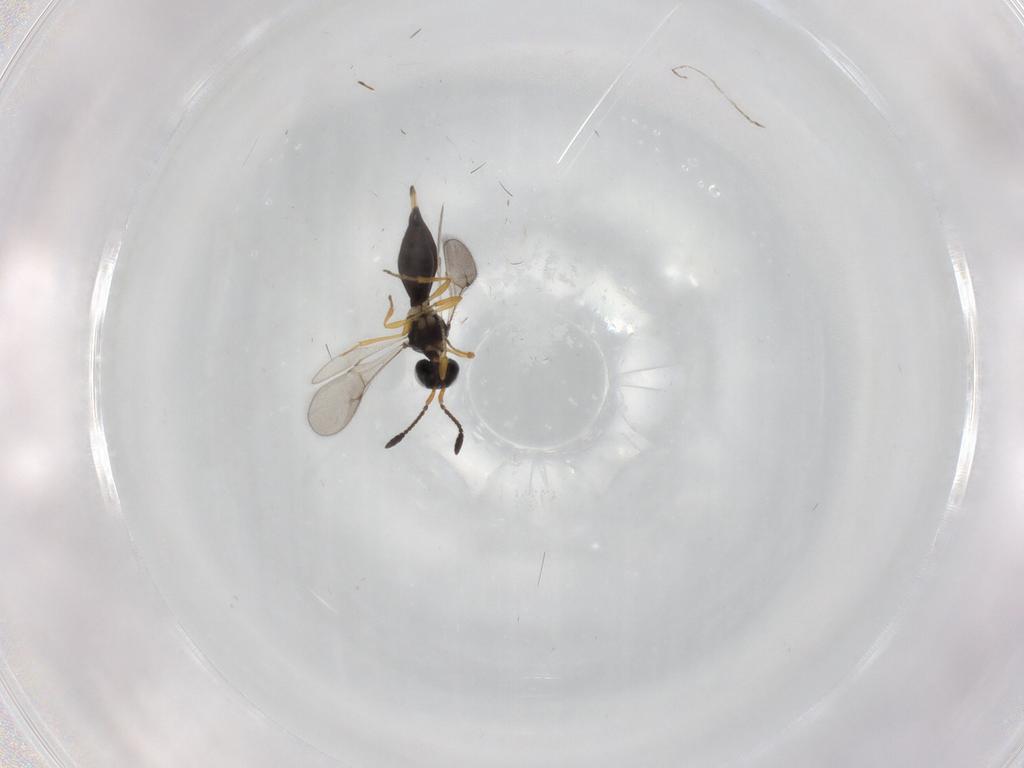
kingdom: Animalia
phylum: Arthropoda
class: Insecta
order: Hymenoptera
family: Scelionidae
